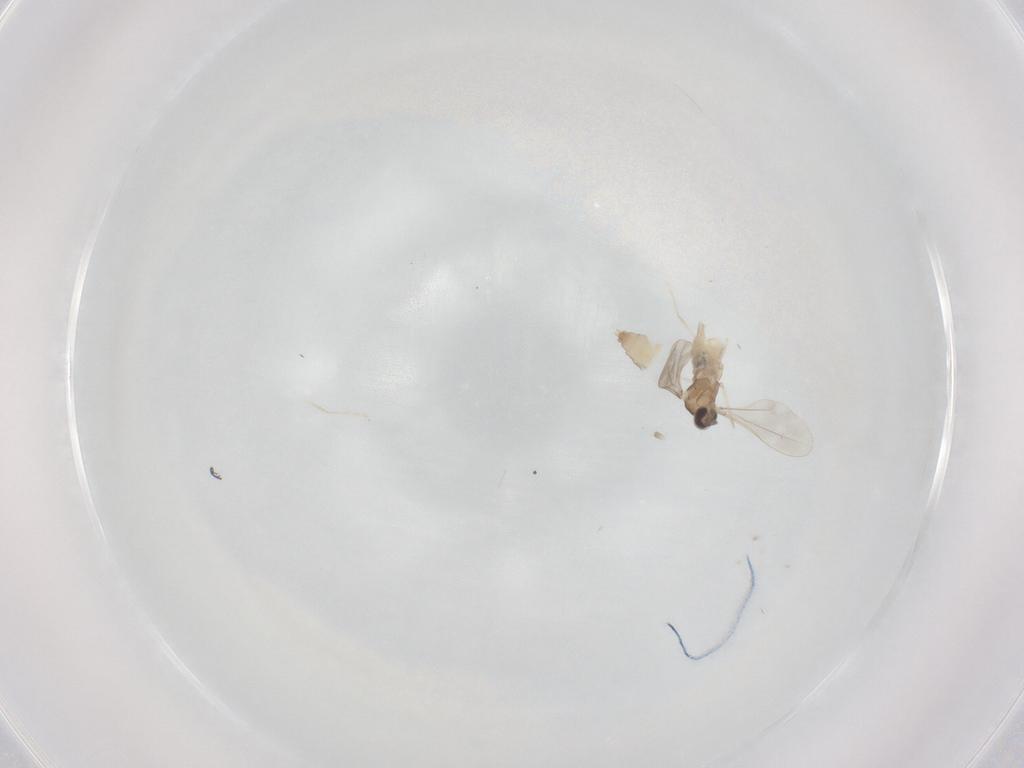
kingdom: Animalia
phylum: Arthropoda
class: Insecta
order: Diptera
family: Cecidomyiidae
